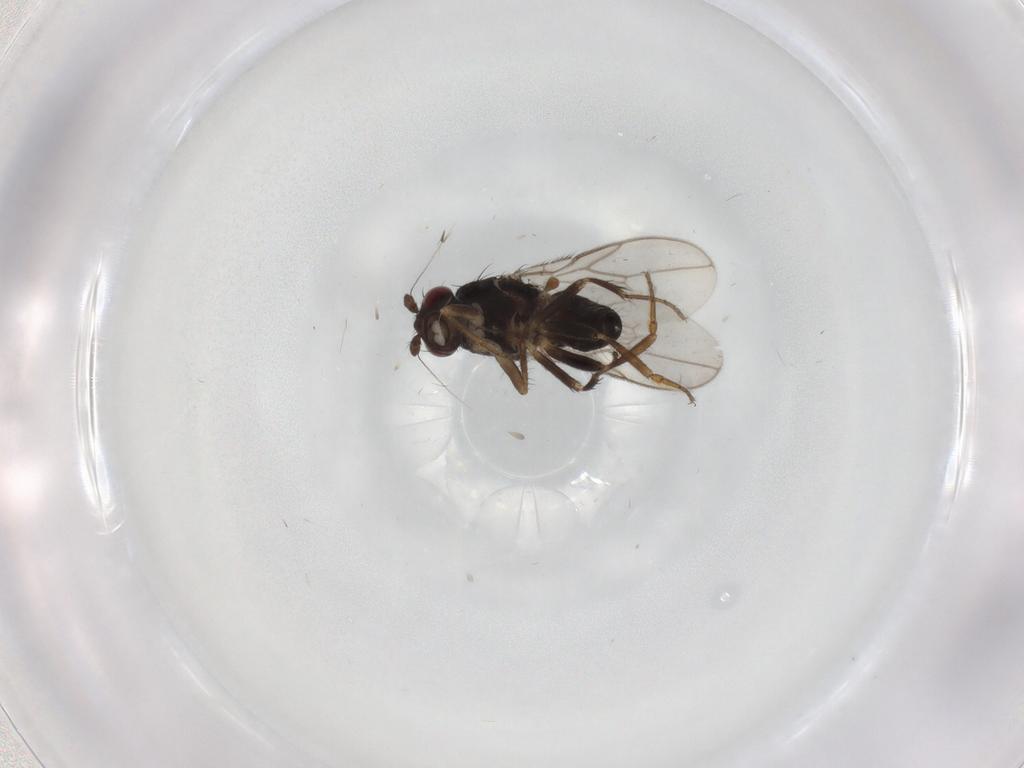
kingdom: Animalia
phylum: Arthropoda
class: Insecta
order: Diptera
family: Sphaeroceridae
